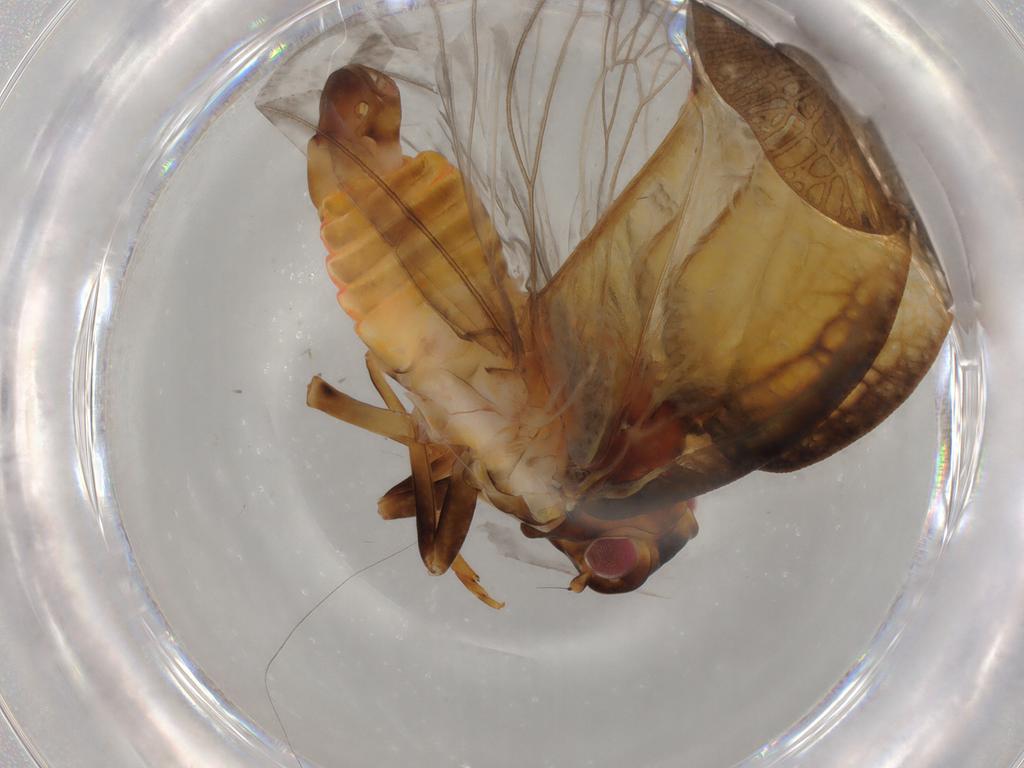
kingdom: Animalia
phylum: Arthropoda
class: Insecta
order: Hemiptera
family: Flatidae
